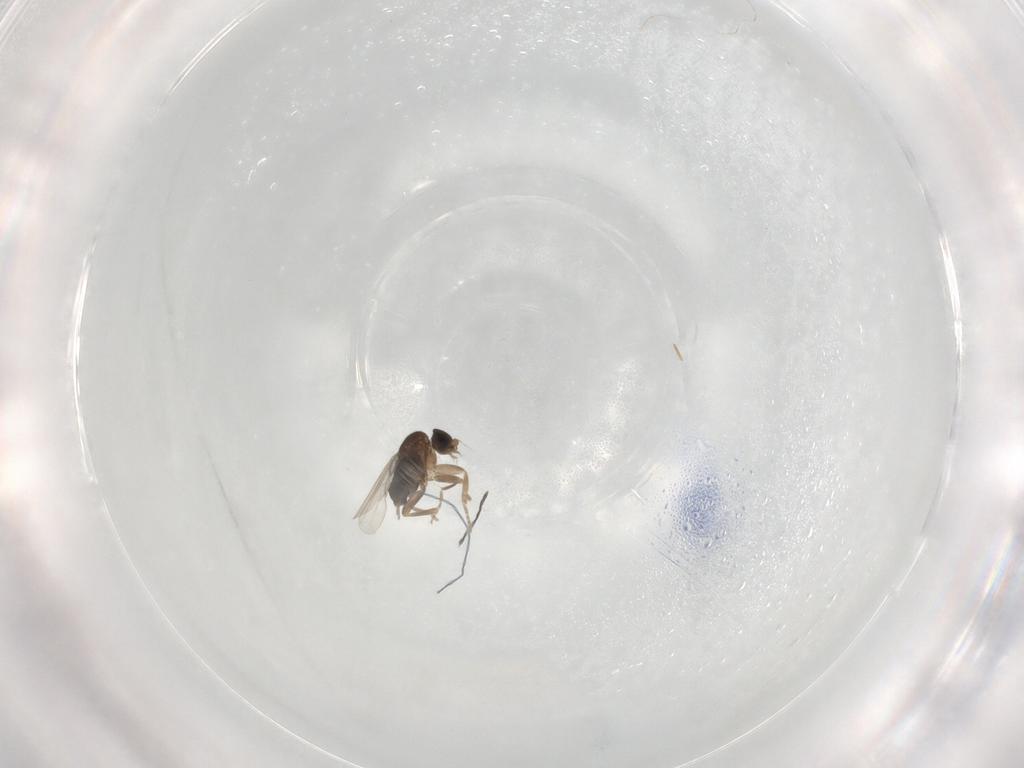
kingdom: Animalia
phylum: Arthropoda
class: Insecta
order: Diptera
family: Phoridae
